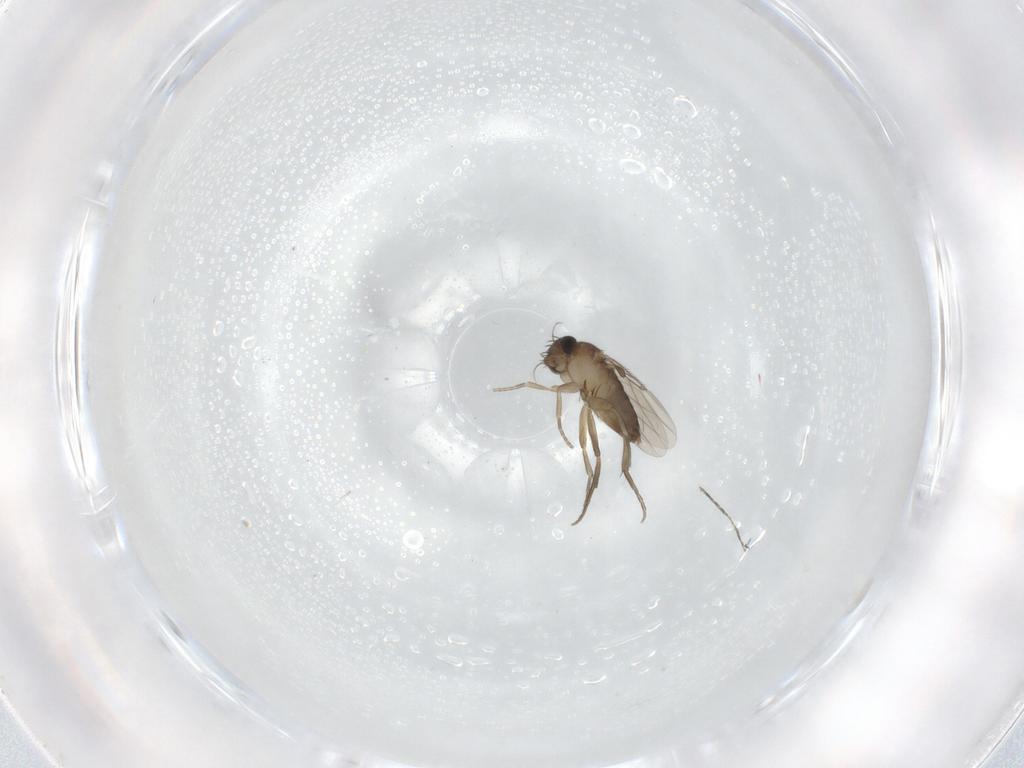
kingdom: Animalia
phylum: Arthropoda
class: Insecta
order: Diptera
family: Phoridae
